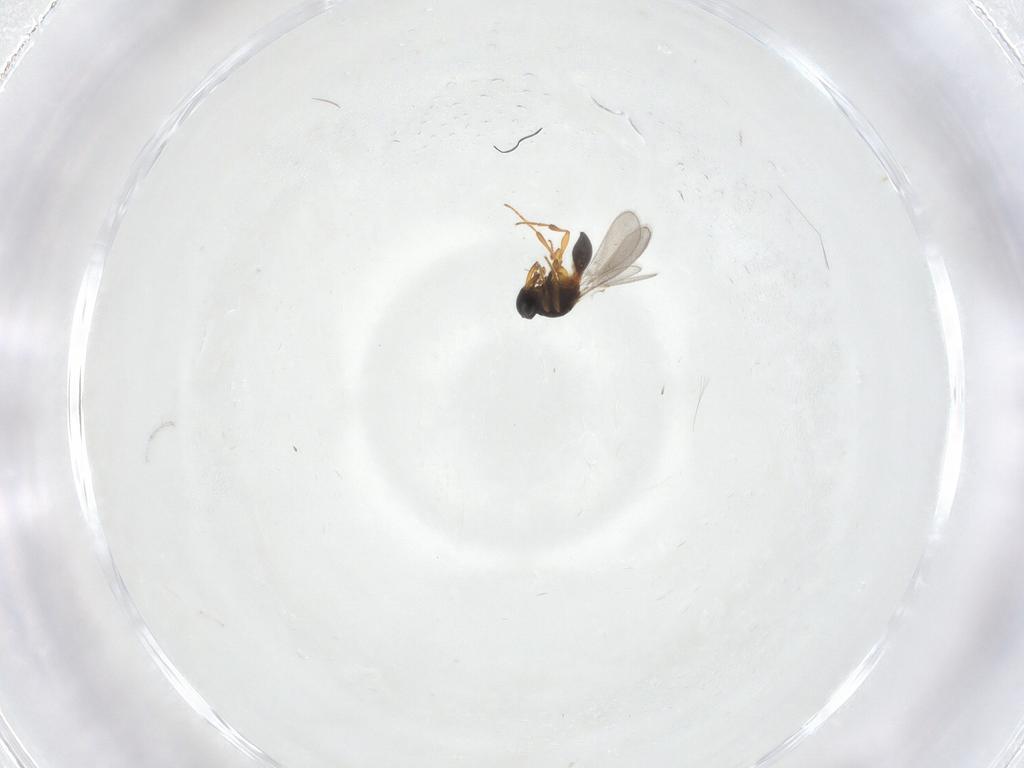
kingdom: Animalia
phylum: Arthropoda
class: Insecta
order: Hymenoptera
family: Platygastridae
